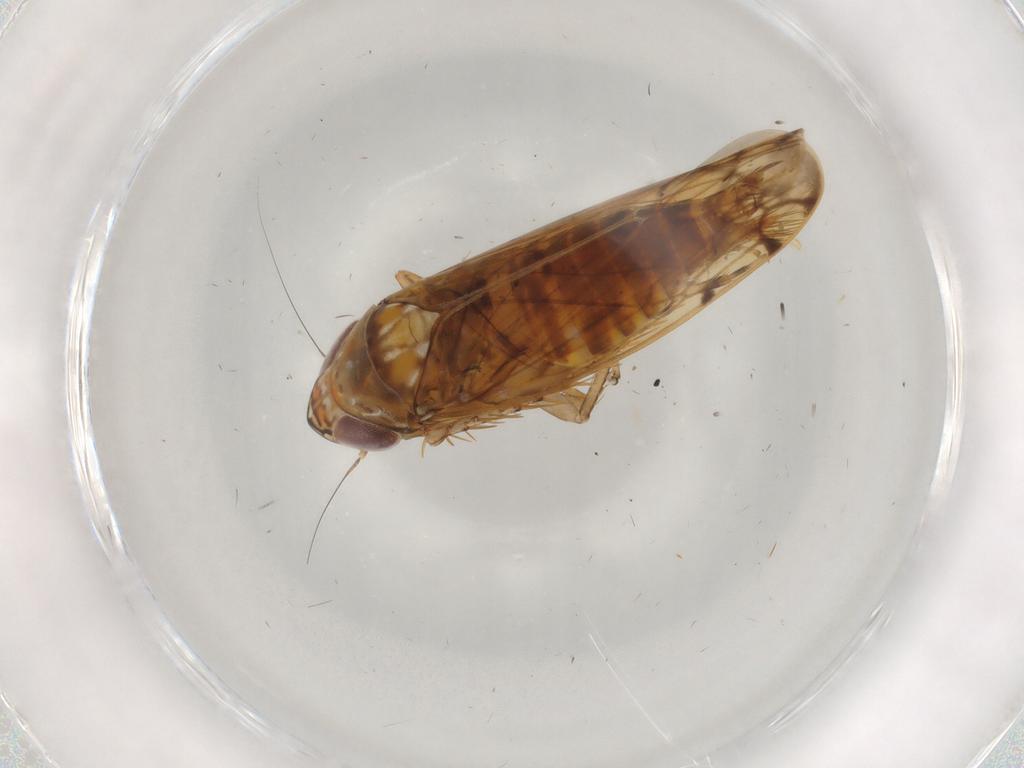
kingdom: Animalia
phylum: Arthropoda
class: Insecta
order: Hemiptera
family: Cicadellidae
